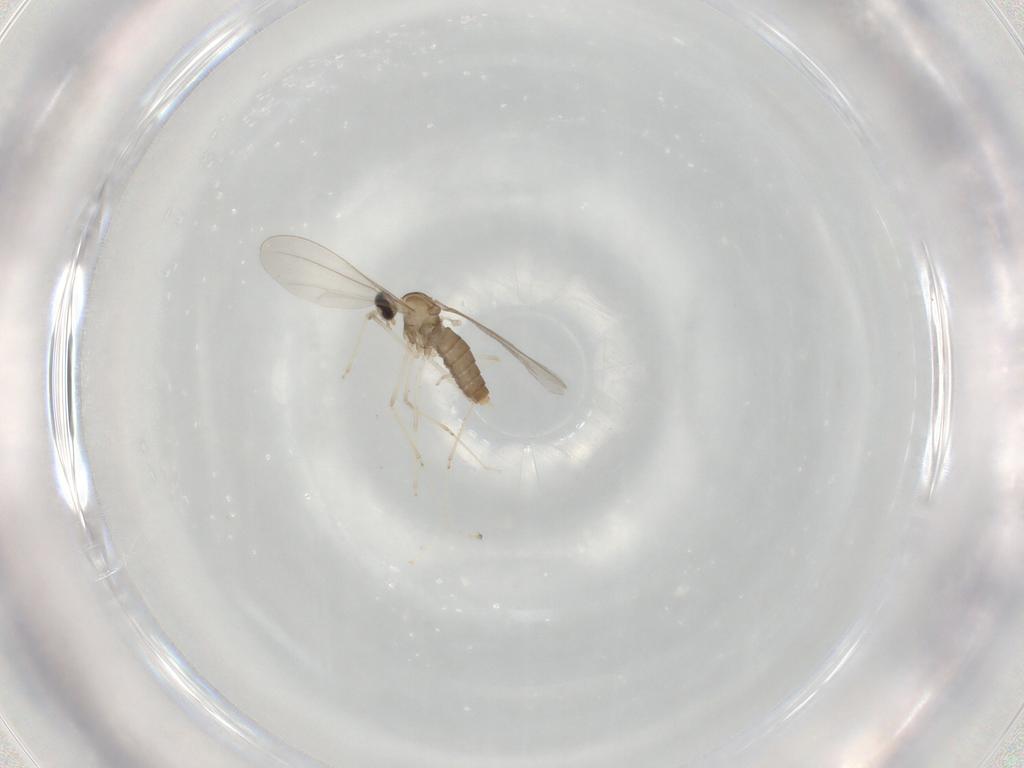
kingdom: Animalia
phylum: Arthropoda
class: Insecta
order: Diptera
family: Cecidomyiidae
